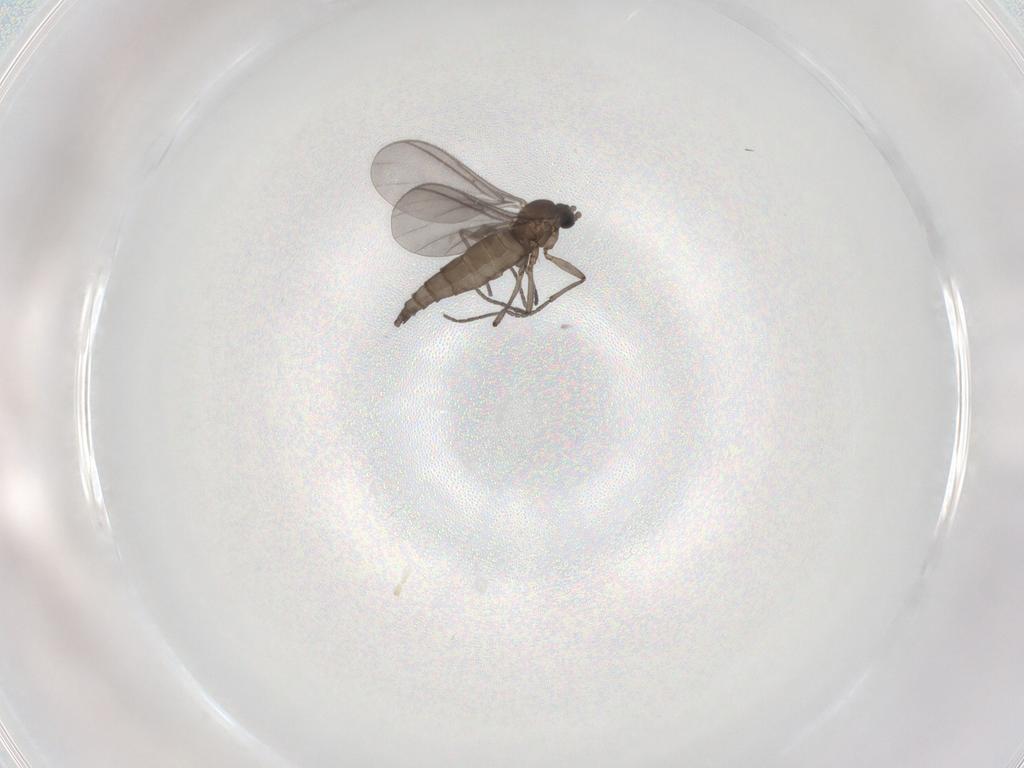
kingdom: Animalia
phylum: Arthropoda
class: Insecta
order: Diptera
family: Sciaridae
